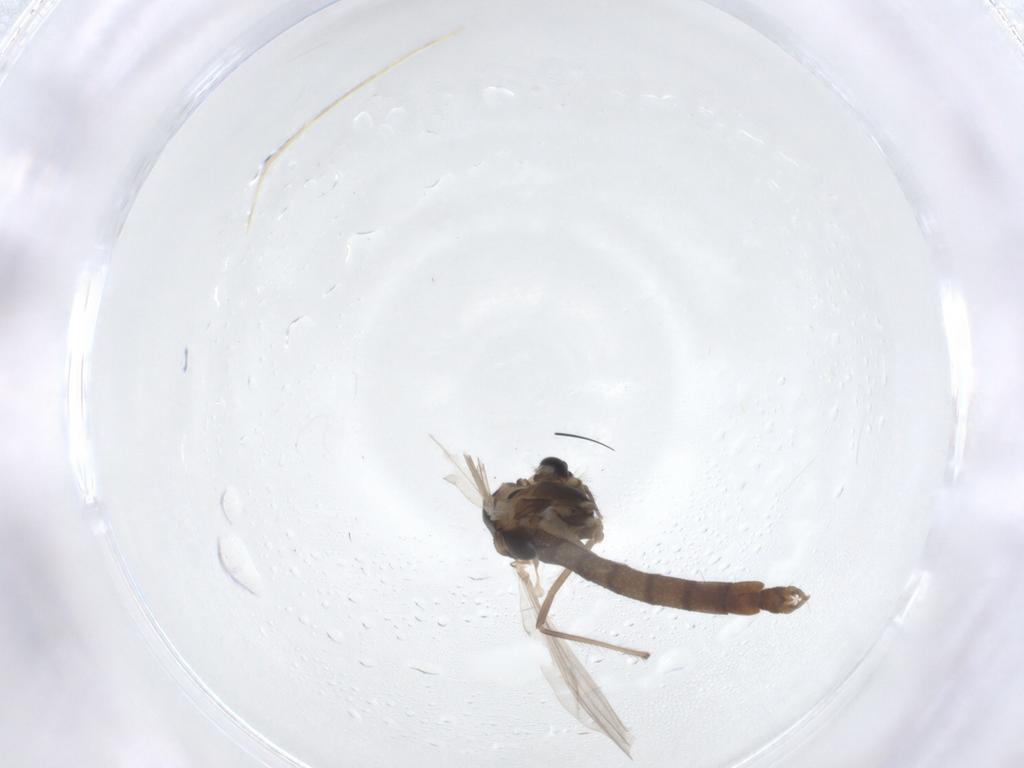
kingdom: Animalia
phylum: Arthropoda
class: Insecta
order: Diptera
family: Chironomidae
